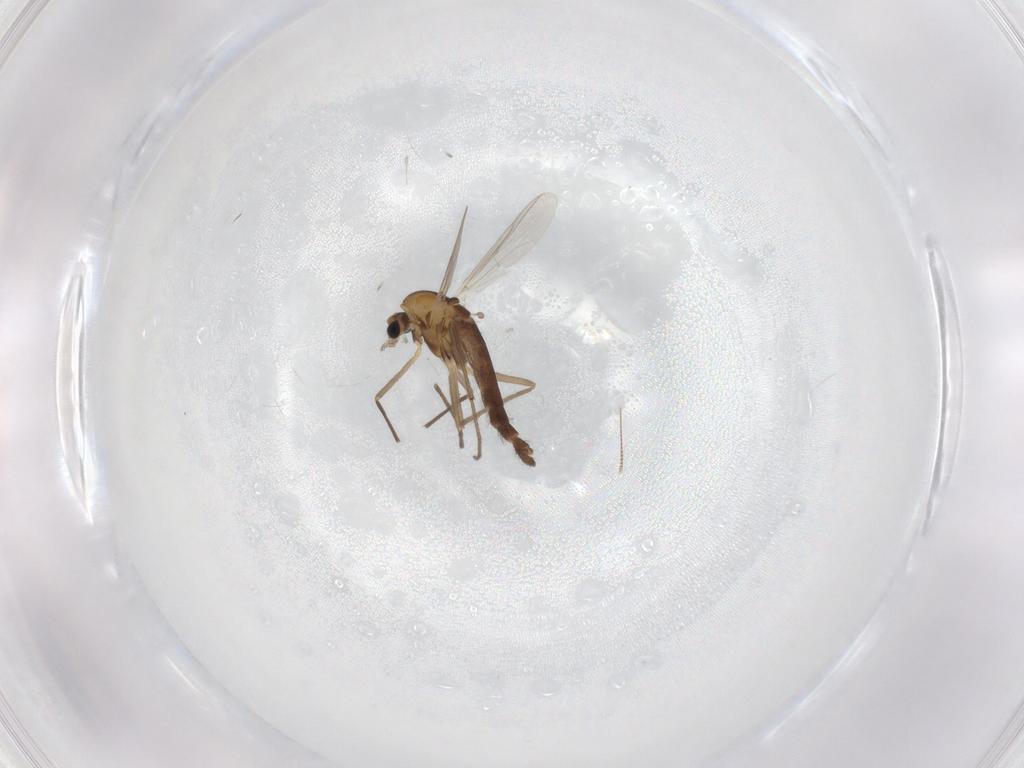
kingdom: Animalia
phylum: Arthropoda
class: Insecta
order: Diptera
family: Chironomidae
